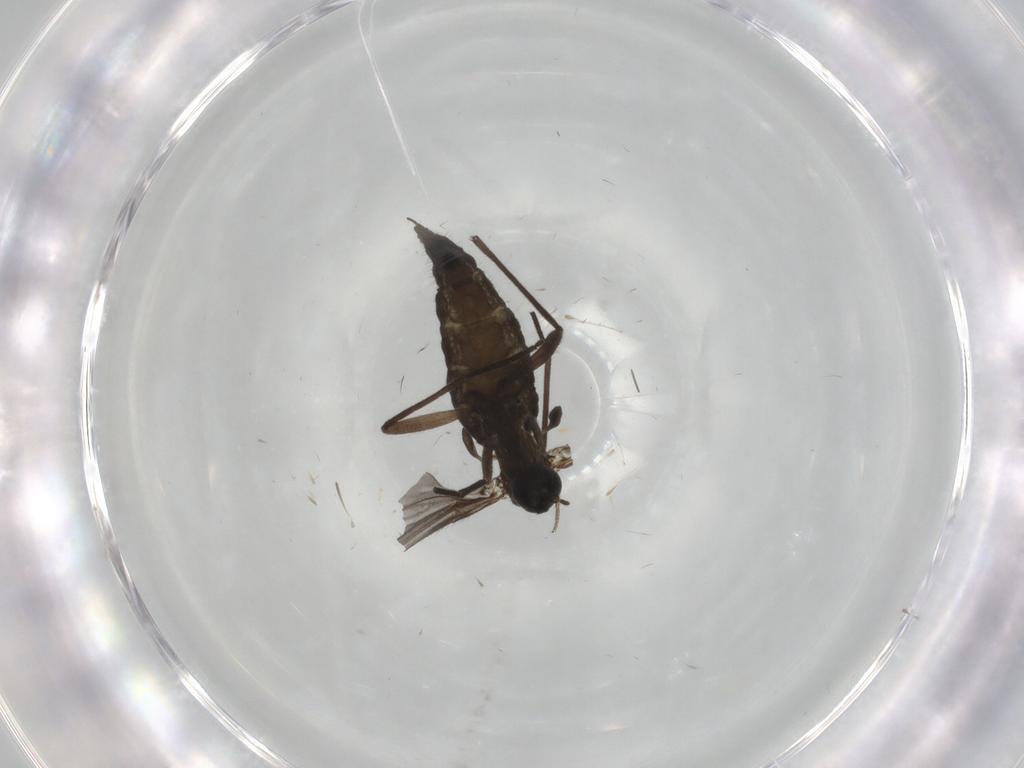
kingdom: Animalia
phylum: Arthropoda
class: Insecta
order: Diptera
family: Sciaridae
